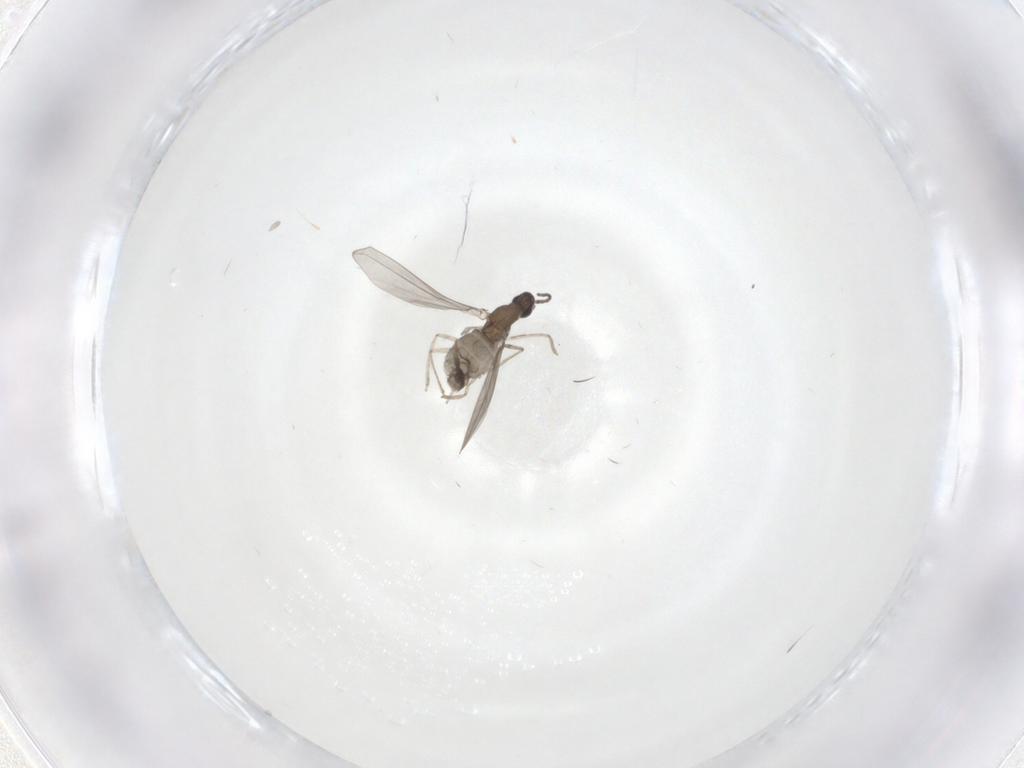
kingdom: Animalia
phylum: Arthropoda
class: Insecta
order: Diptera
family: Cecidomyiidae
